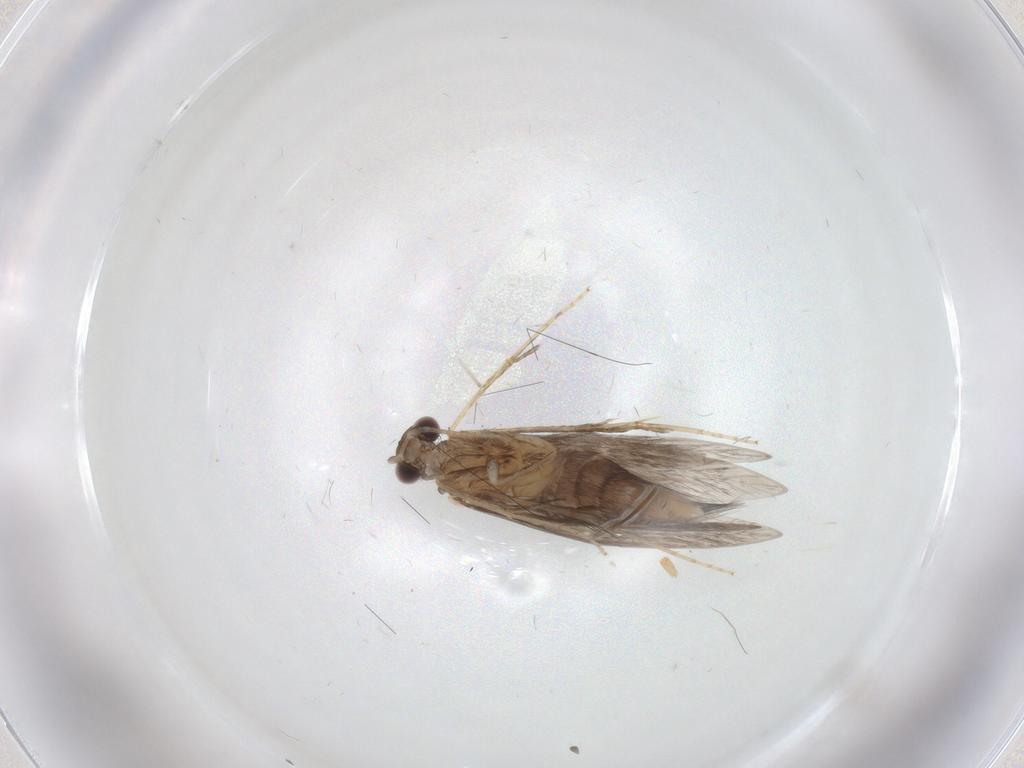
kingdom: Animalia
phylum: Arthropoda
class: Insecta
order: Trichoptera
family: Hydroptilidae
